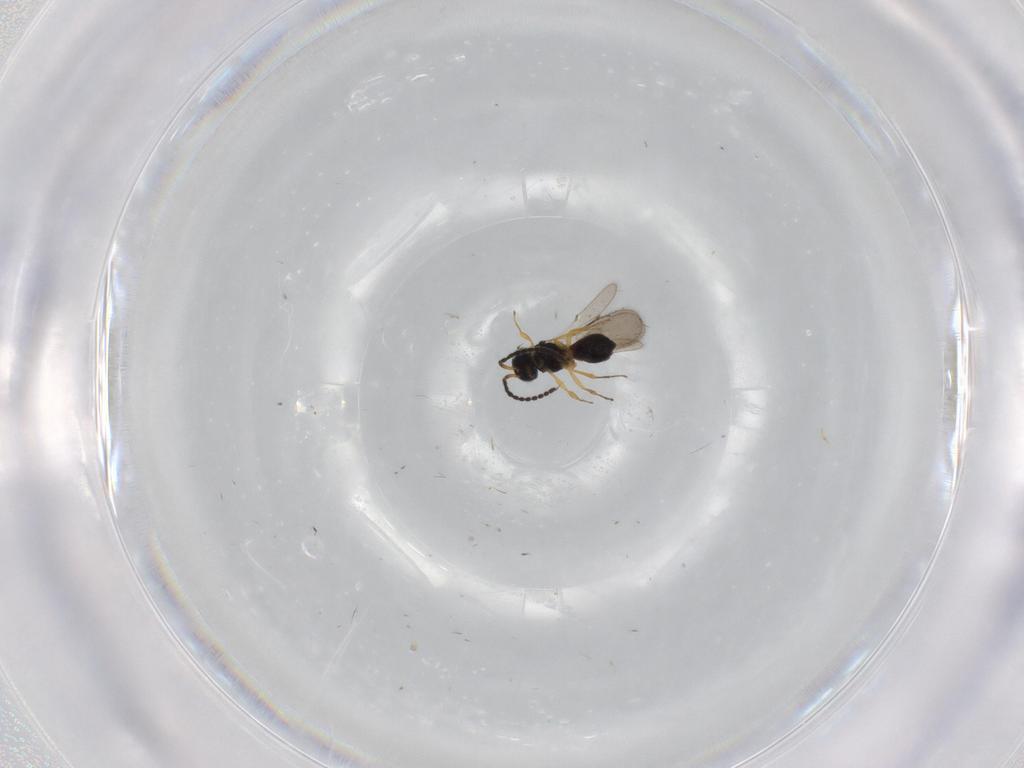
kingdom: Animalia
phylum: Arthropoda
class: Insecta
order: Hymenoptera
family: Scelionidae
